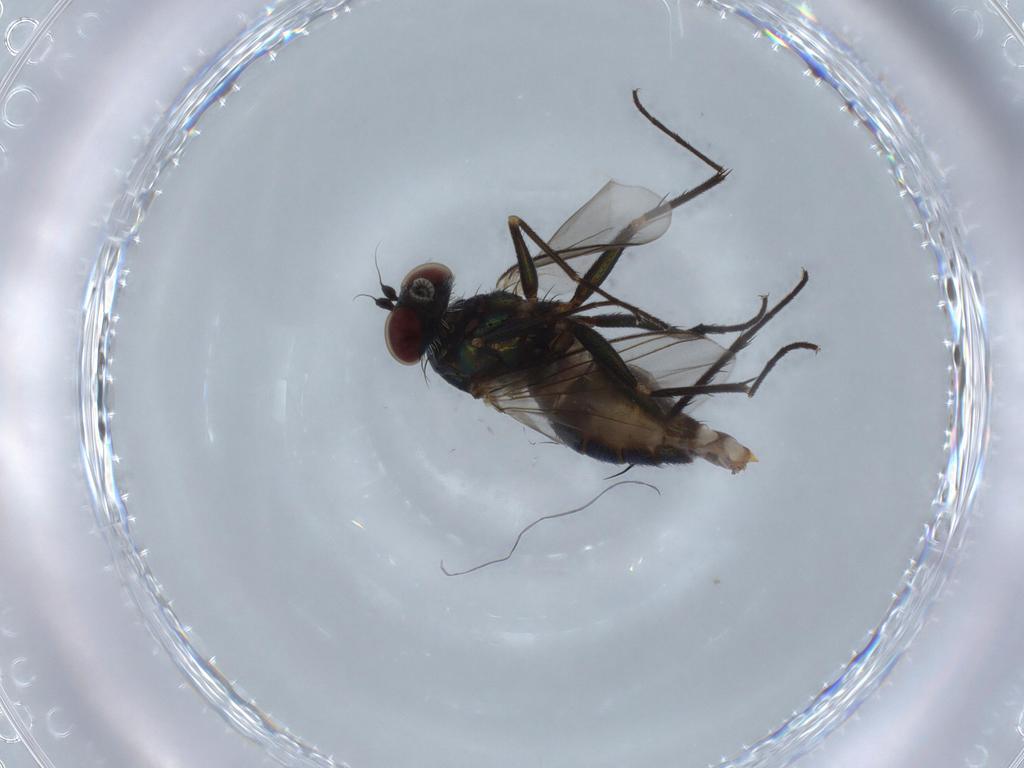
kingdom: Animalia
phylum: Arthropoda
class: Insecta
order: Diptera
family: Dolichopodidae
